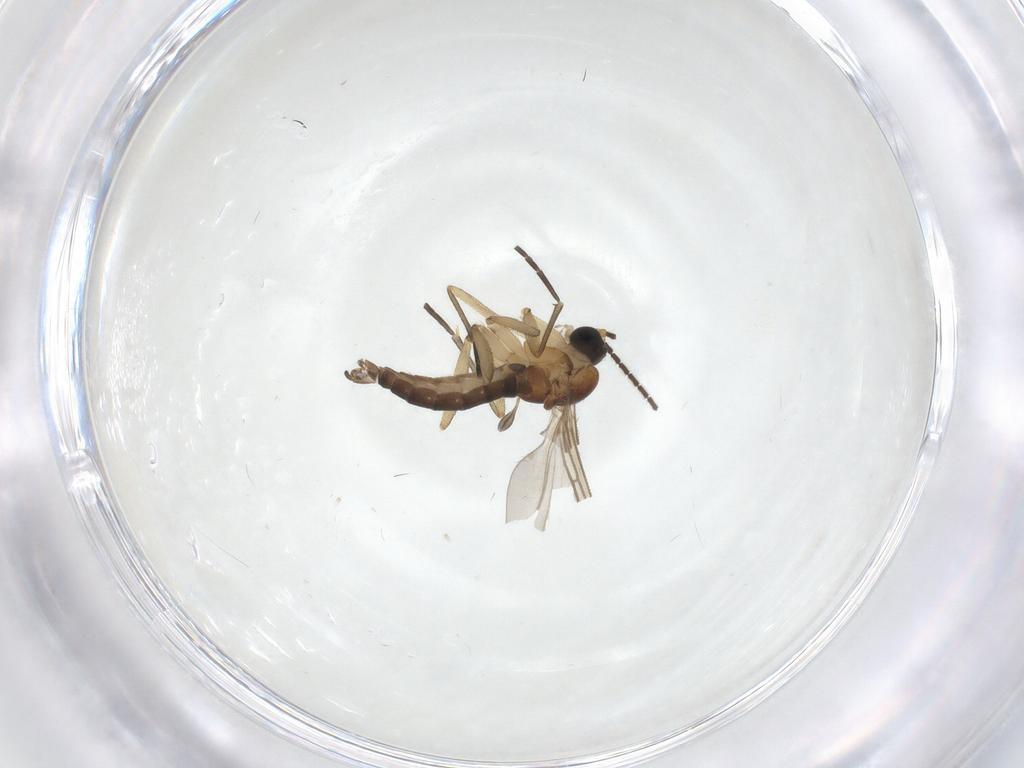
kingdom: Animalia
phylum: Arthropoda
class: Insecta
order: Diptera
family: Sciaridae
